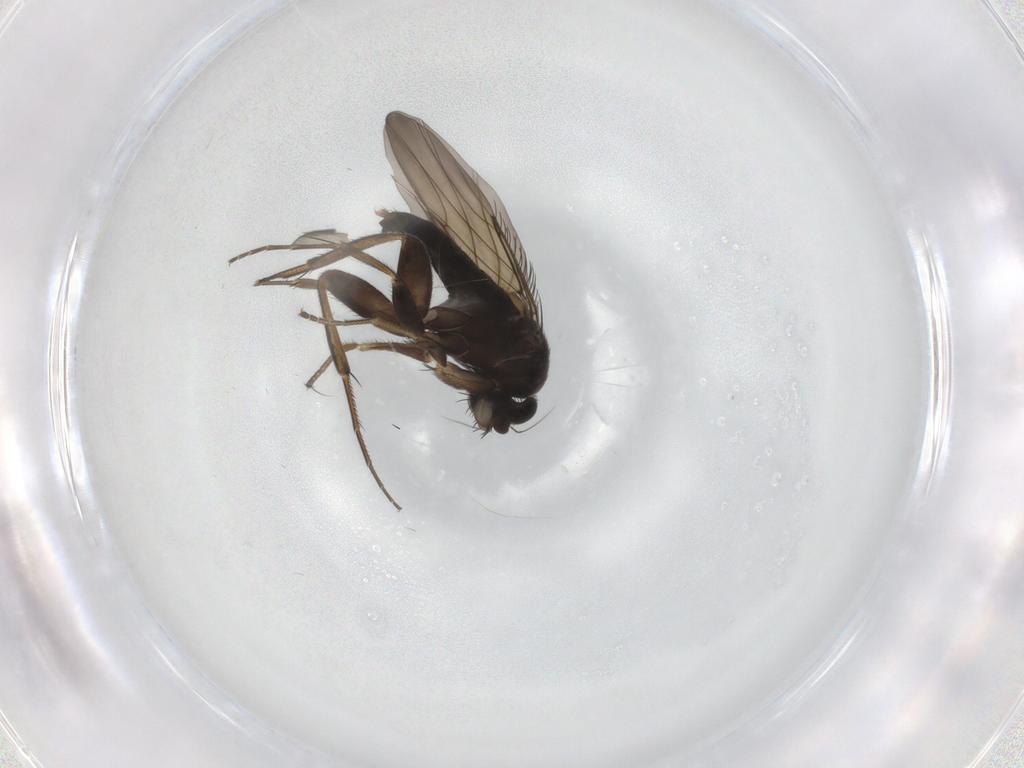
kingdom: Animalia
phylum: Arthropoda
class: Insecta
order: Diptera
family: Phoridae
